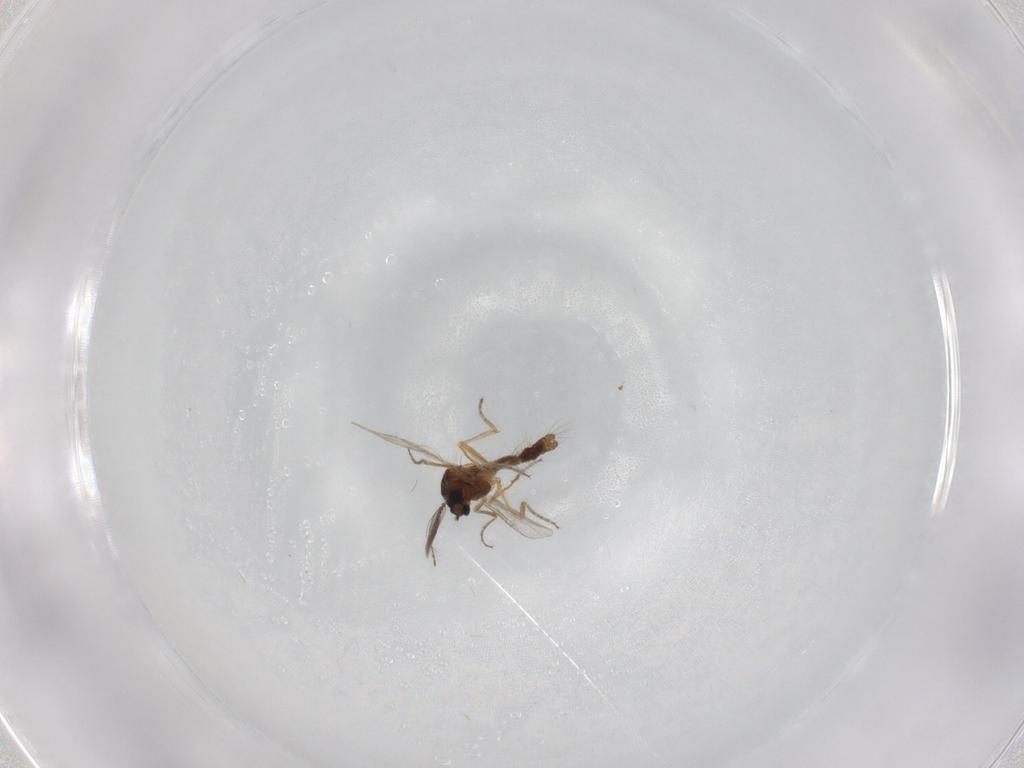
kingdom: Animalia
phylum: Arthropoda
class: Insecta
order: Diptera
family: Ceratopogonidae
